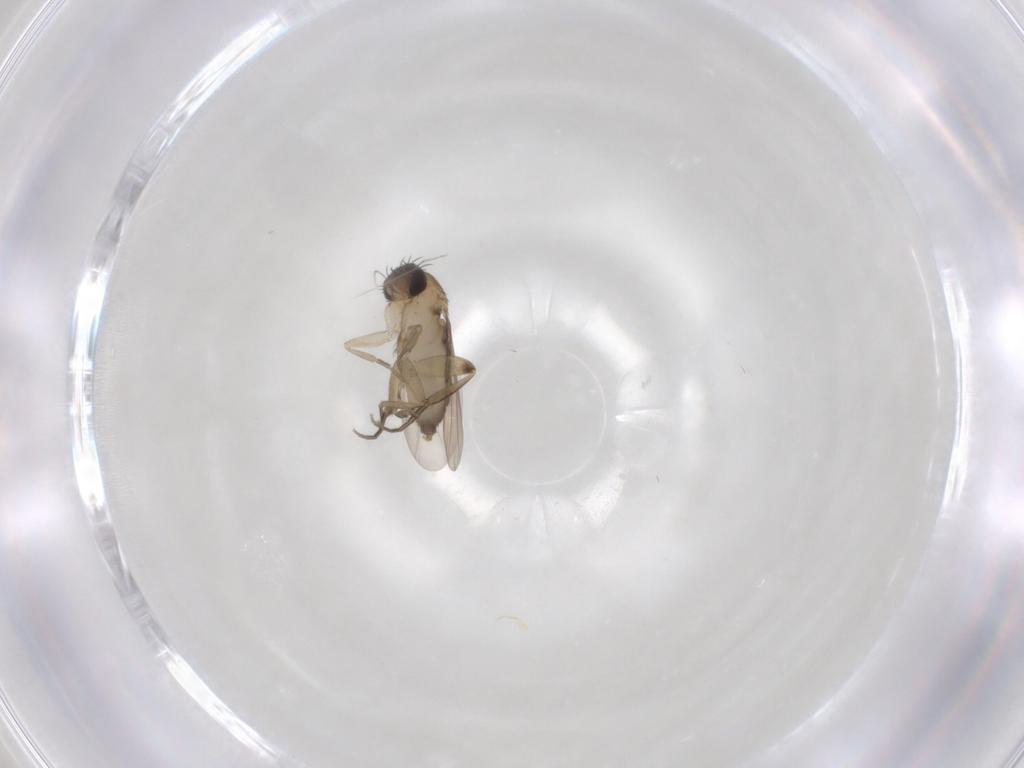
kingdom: Animalia
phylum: Arthropoda
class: Insecta
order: Diptera
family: Phoridae
